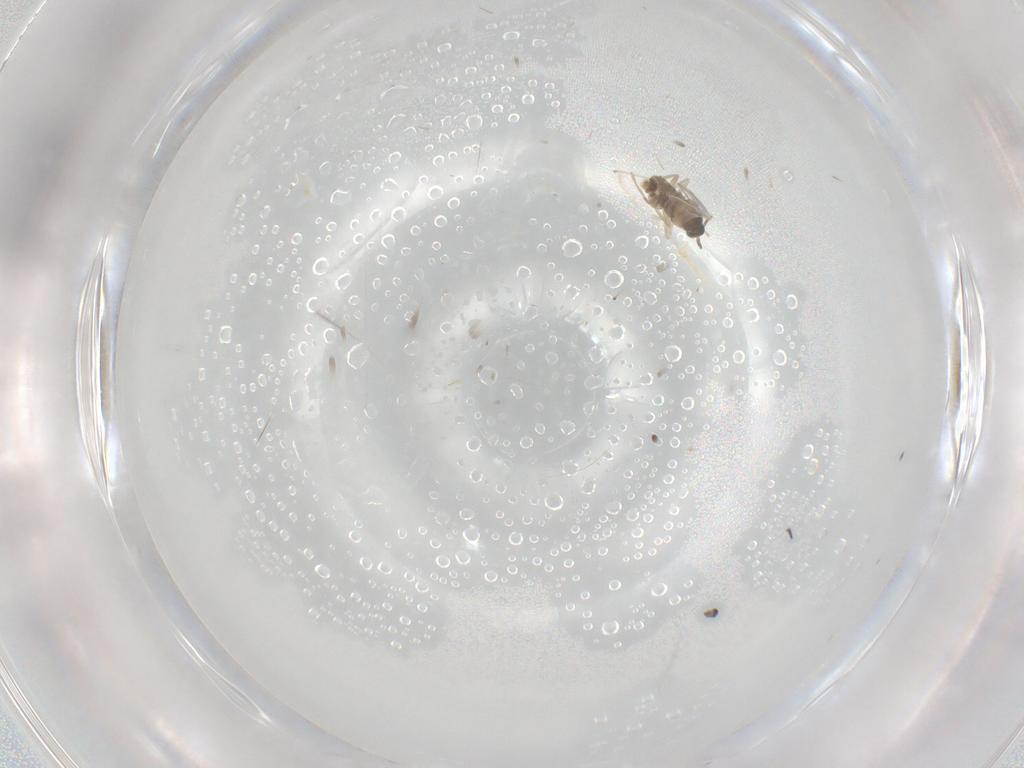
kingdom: Animalia
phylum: Arthropoda
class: Insecta
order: Diptera
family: Cecidomyiidae
